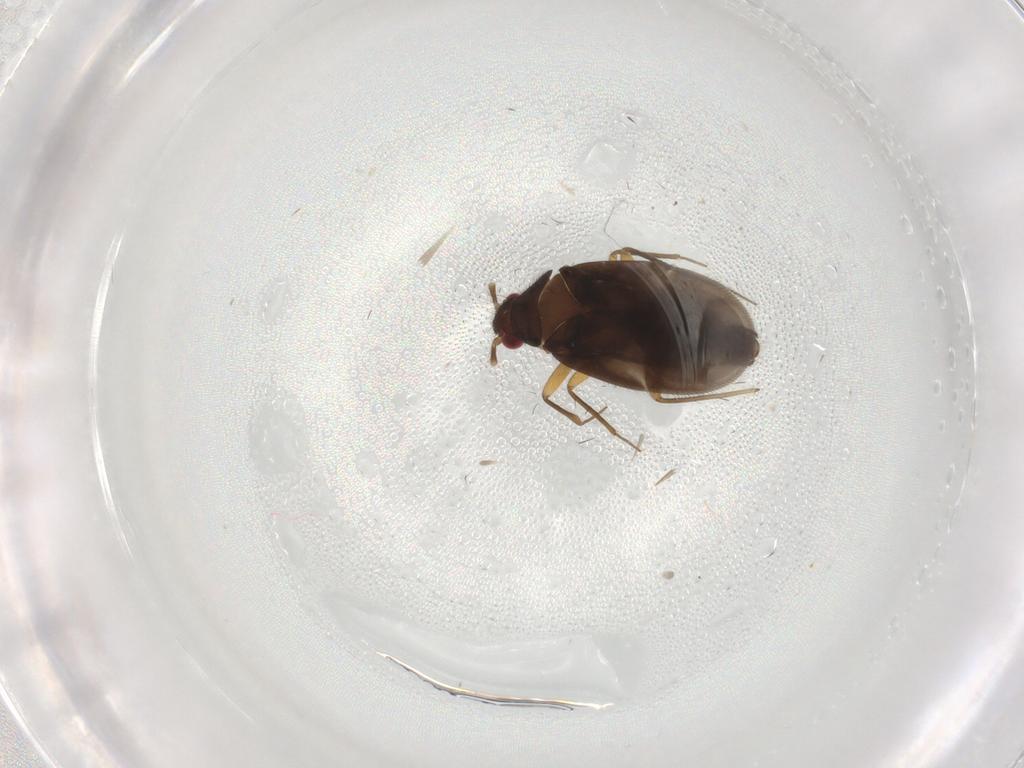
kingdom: Animalia
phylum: Arthropoda
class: Insecta
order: Hemiptera
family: Ceratocombidae
